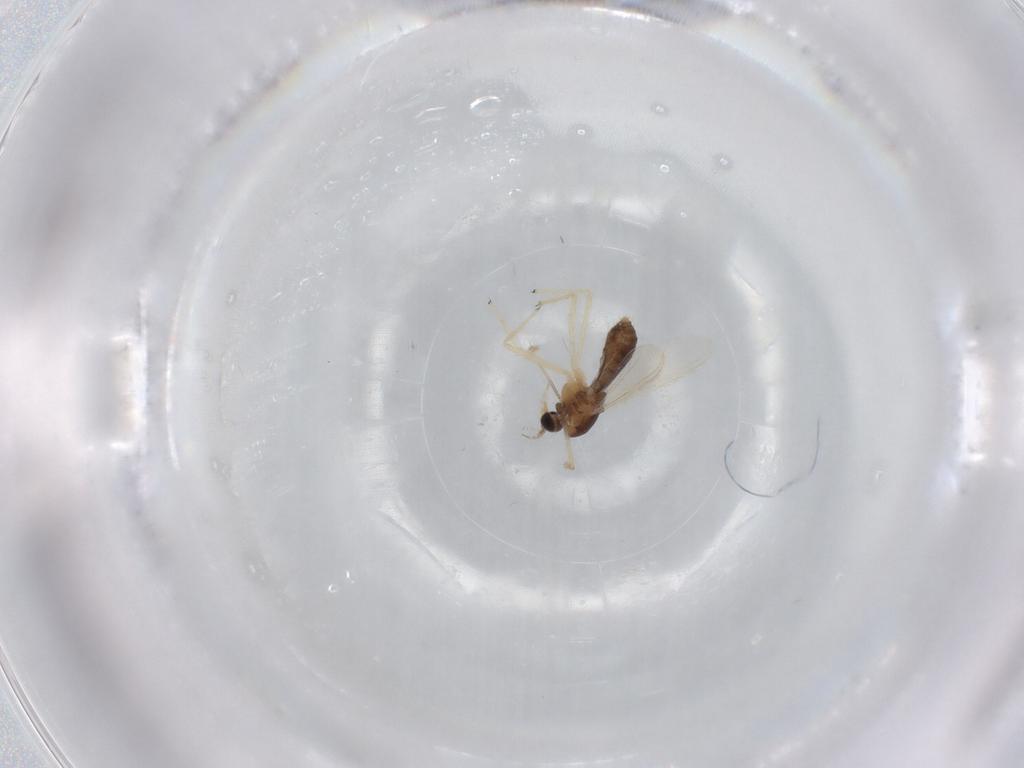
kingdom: Animalia
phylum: Arthropoda
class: Insecta
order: Diptera
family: Chironomidae
